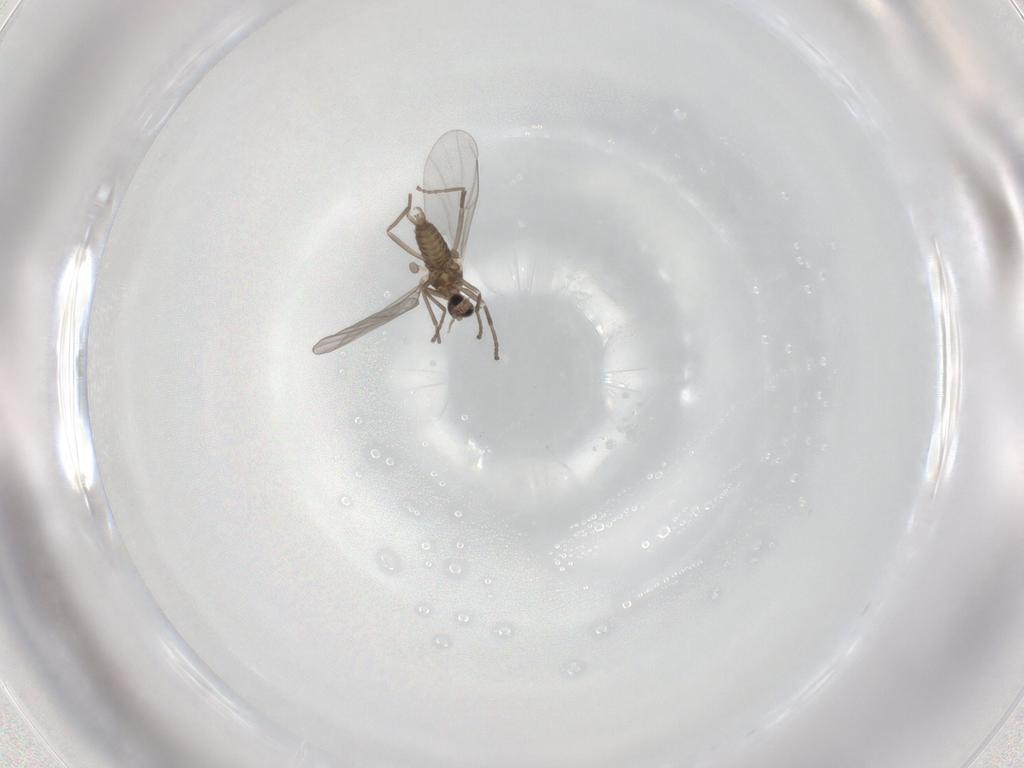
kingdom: Animalia
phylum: Arthropoda
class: Insecta
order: Diptera
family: Cecidomyiidae
